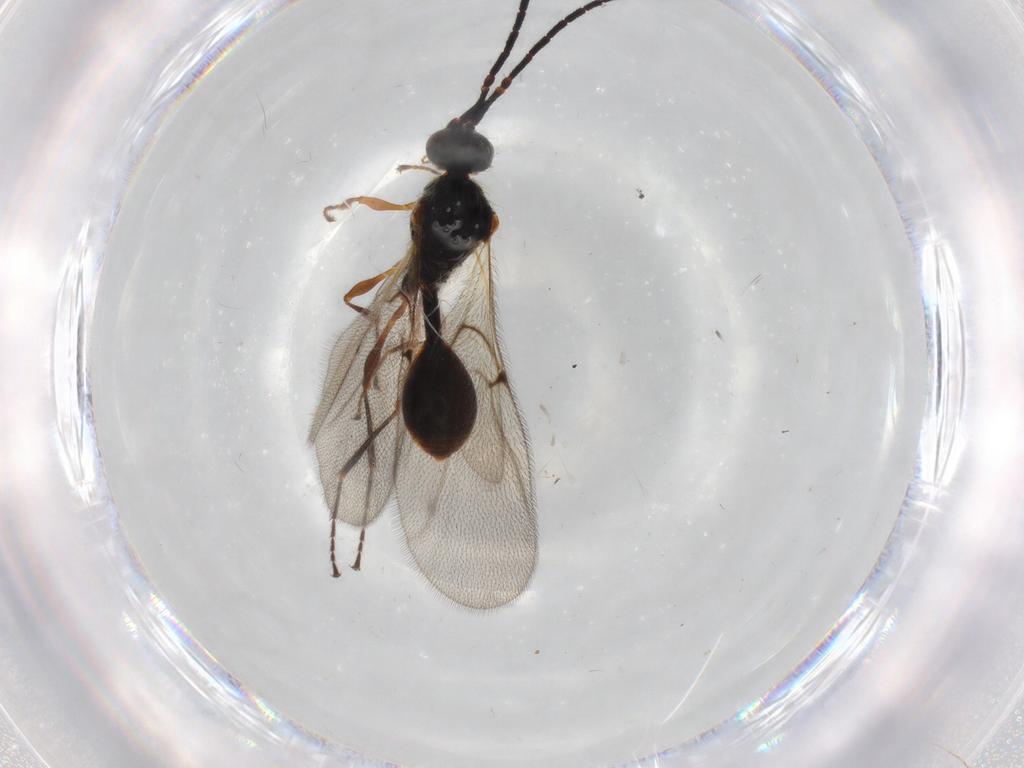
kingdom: Animalia
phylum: Arthropoda
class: Insecta
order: Hymenoptera
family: Diapriidae
